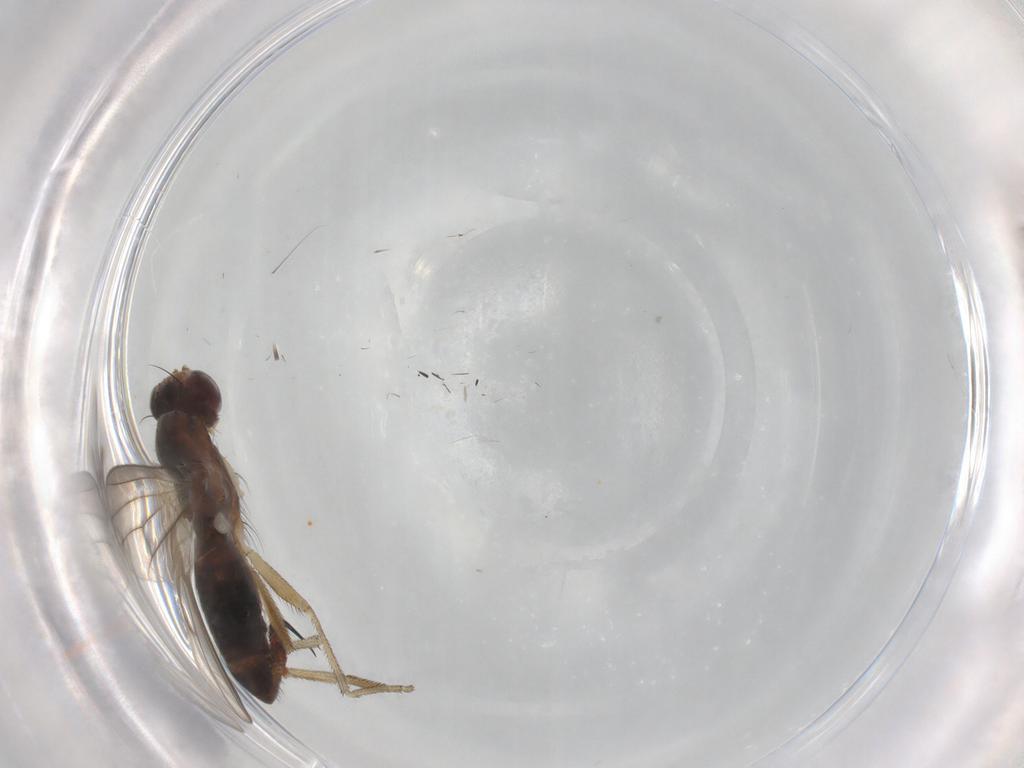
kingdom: Animalia
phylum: Arthropoda
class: Insecta
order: Diptera
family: Heleomyzidae
